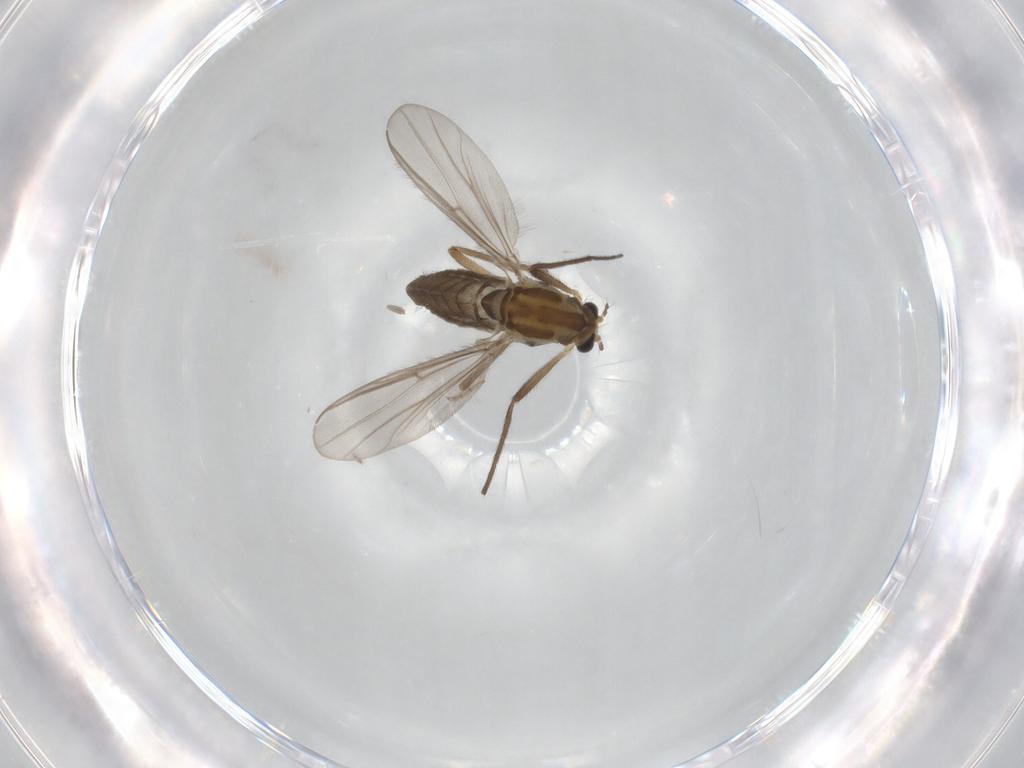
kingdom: Animalia
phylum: Arthropoda
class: Insecta
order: Diptera
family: Chironomidae
